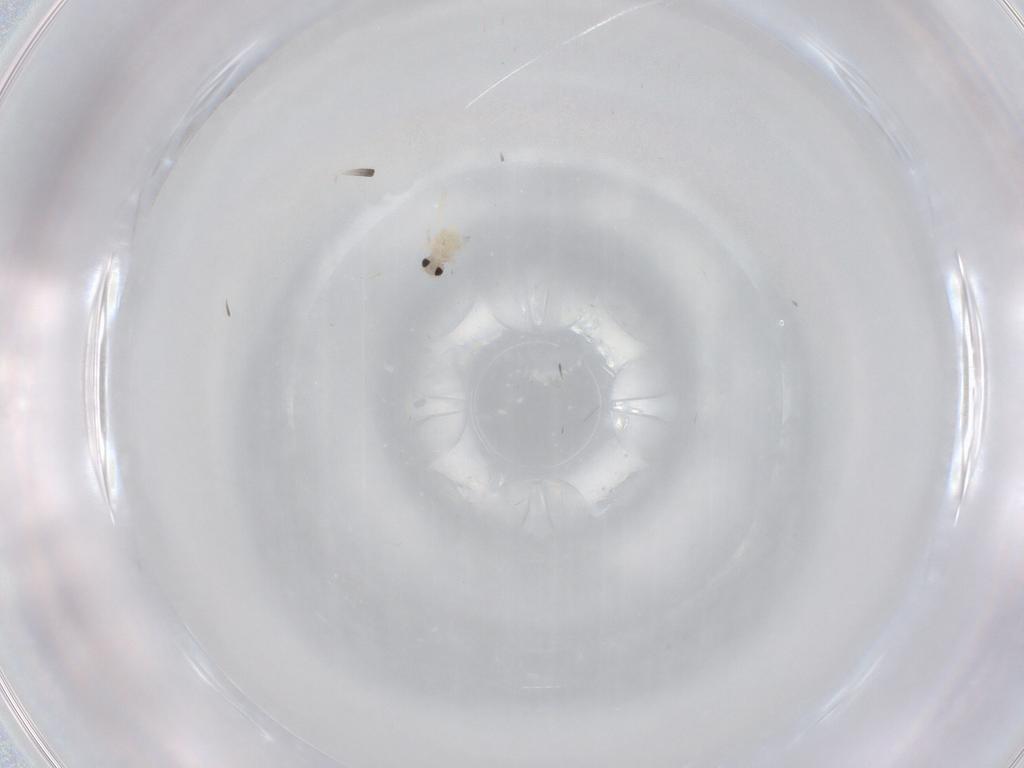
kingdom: Animalia
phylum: Arthropoda
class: Insecta
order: Diptera
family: Cecidomyiidae
